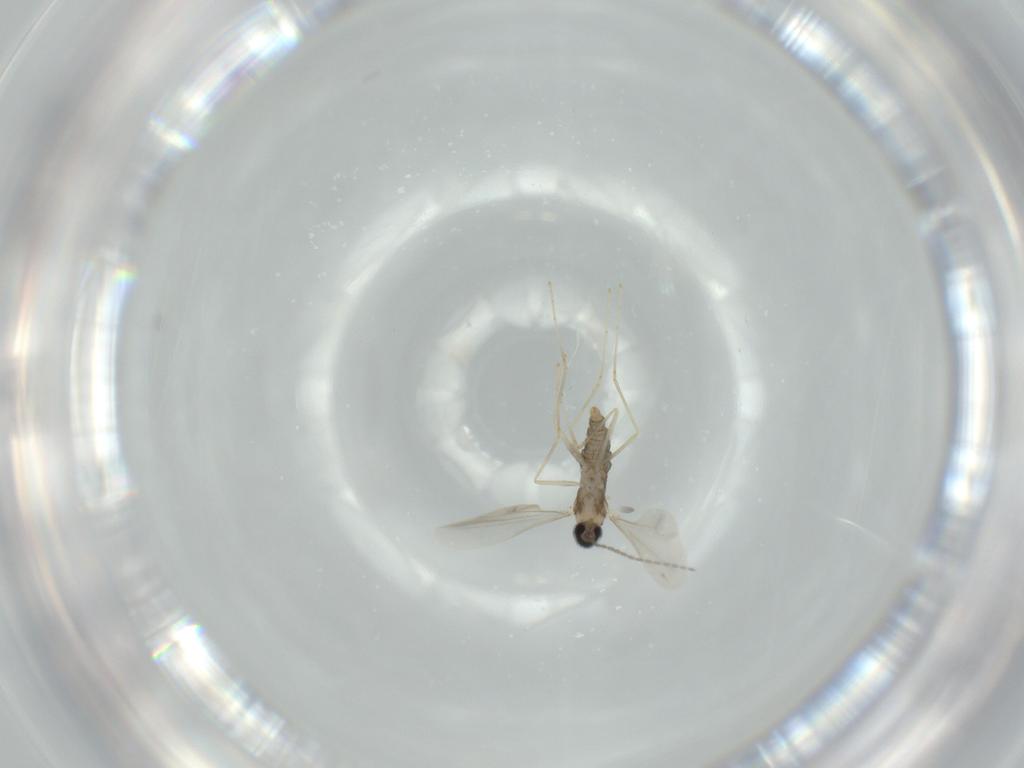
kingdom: Animalia
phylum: Arthropoda
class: Insecta
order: Diptera
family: Cecidomyiidae
